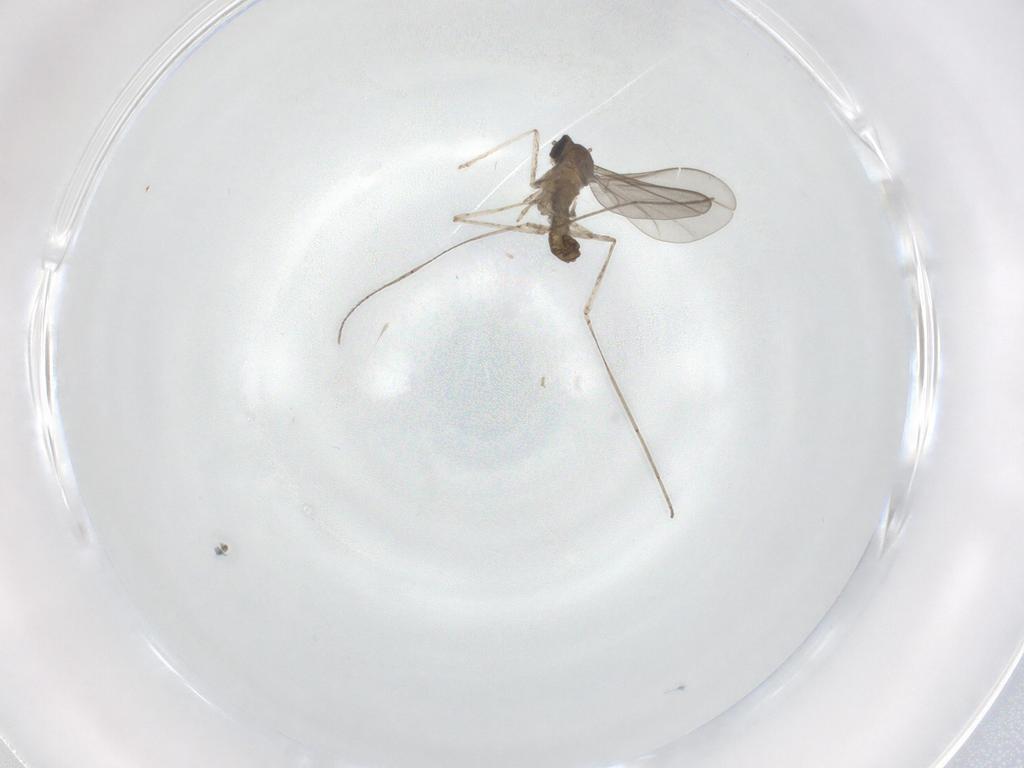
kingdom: Animalia
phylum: Arthropoda
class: Insecta
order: Diptera
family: Cecidomyiidae
